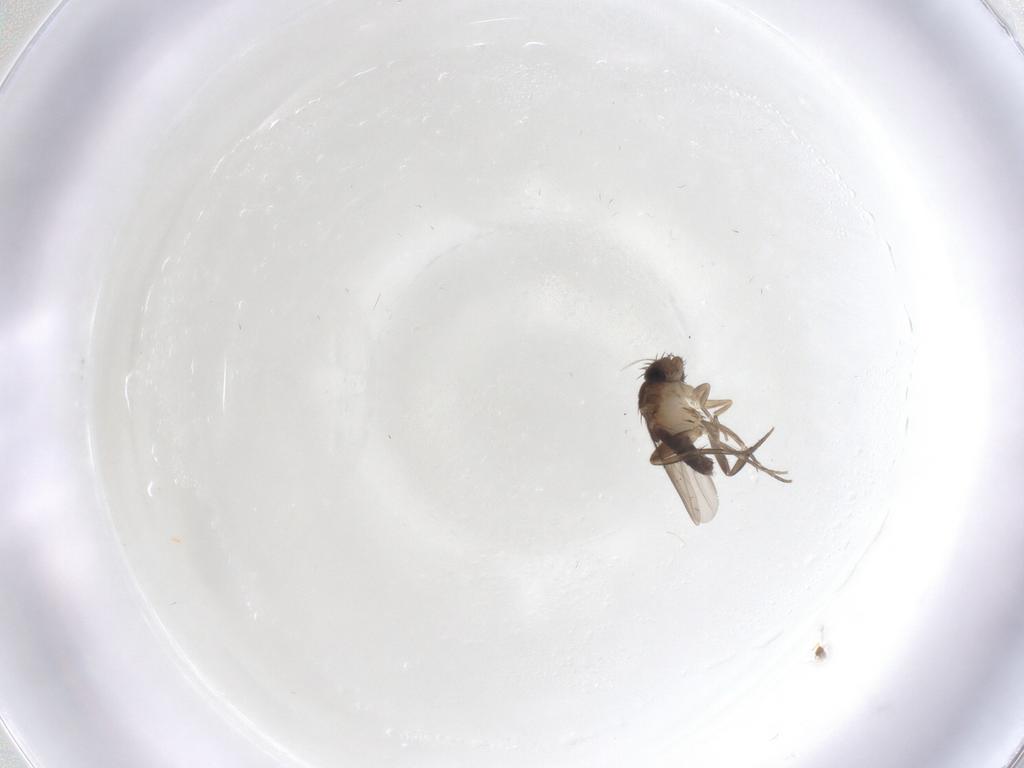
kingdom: Animalia
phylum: Arthropoda
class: Insecta
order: Diptera
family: Phoridae
